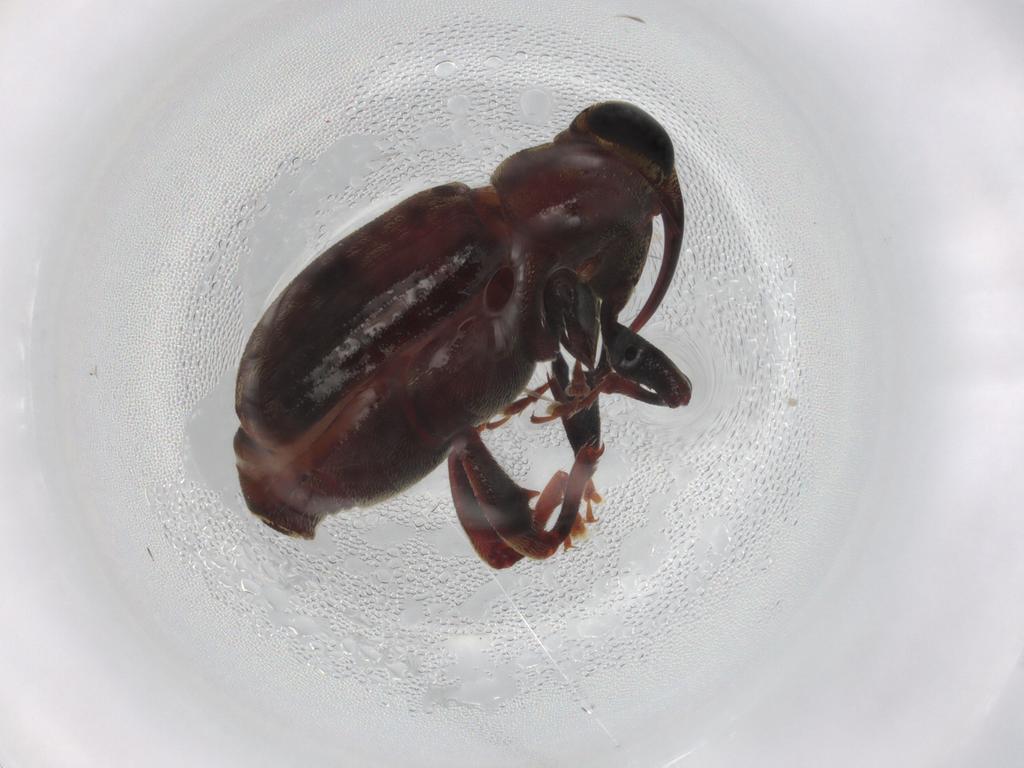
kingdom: Animalia
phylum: Arthropoda
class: Insecta
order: Coleoptera
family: Curculionidae
